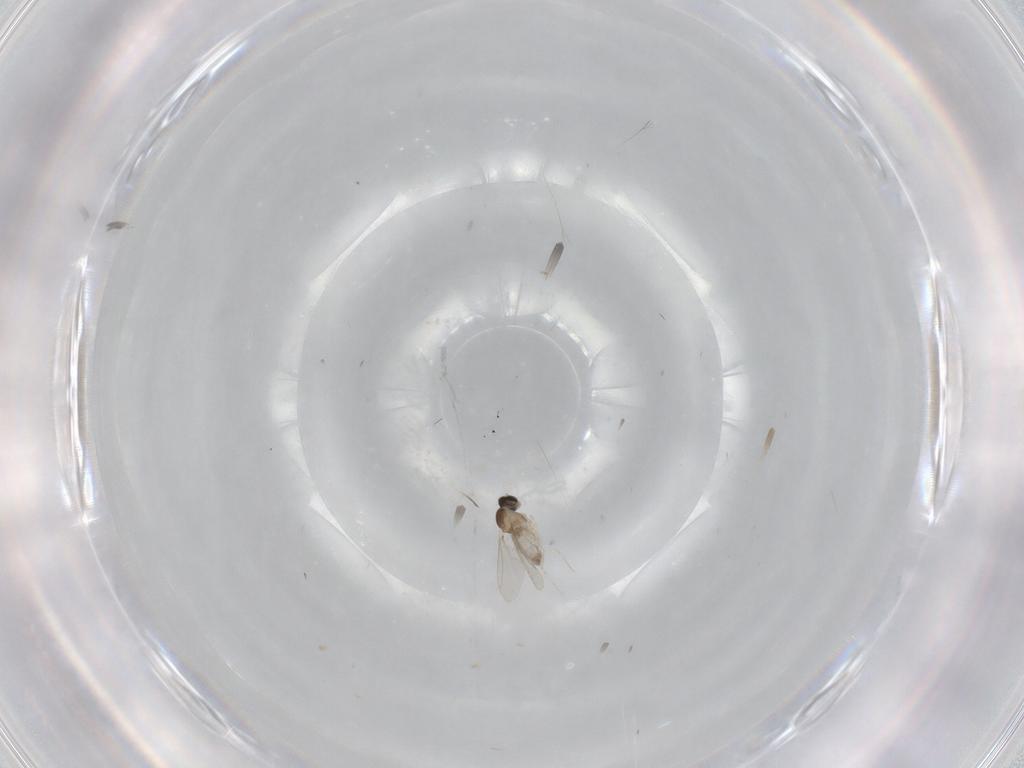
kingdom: Animalia
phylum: Arthropoda
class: Insecta
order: Diptera
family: Cecidomyiidae
